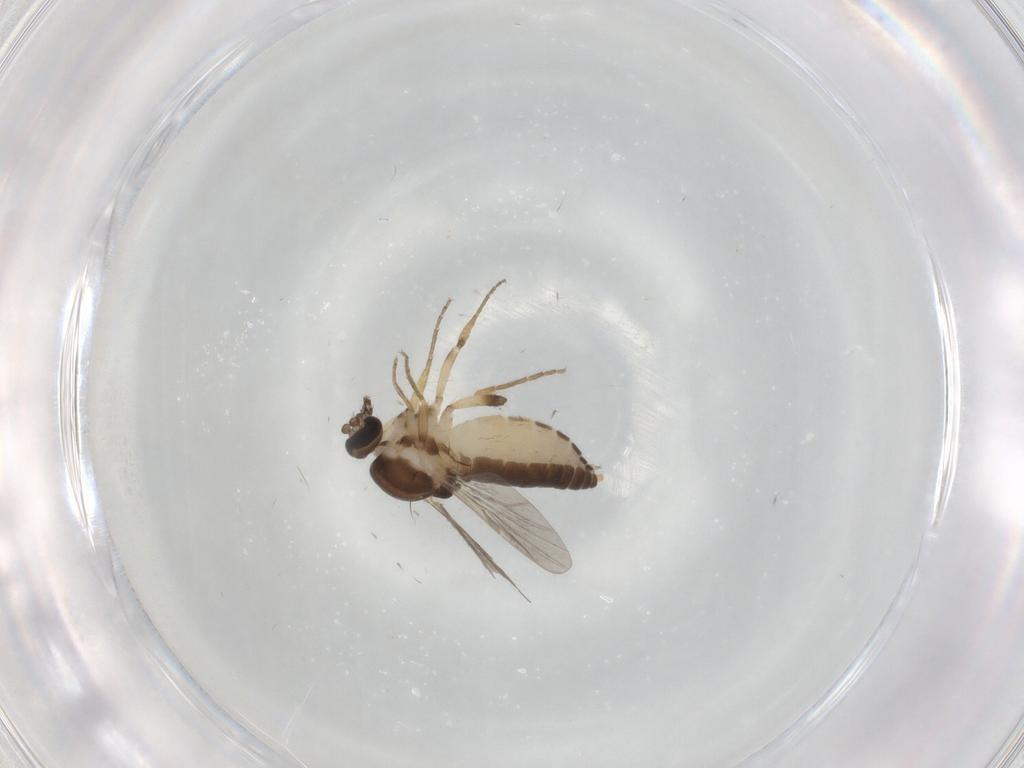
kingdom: Animalia
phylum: Arthropoda
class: Insecta
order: Diptera
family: Ceratopogonidae
